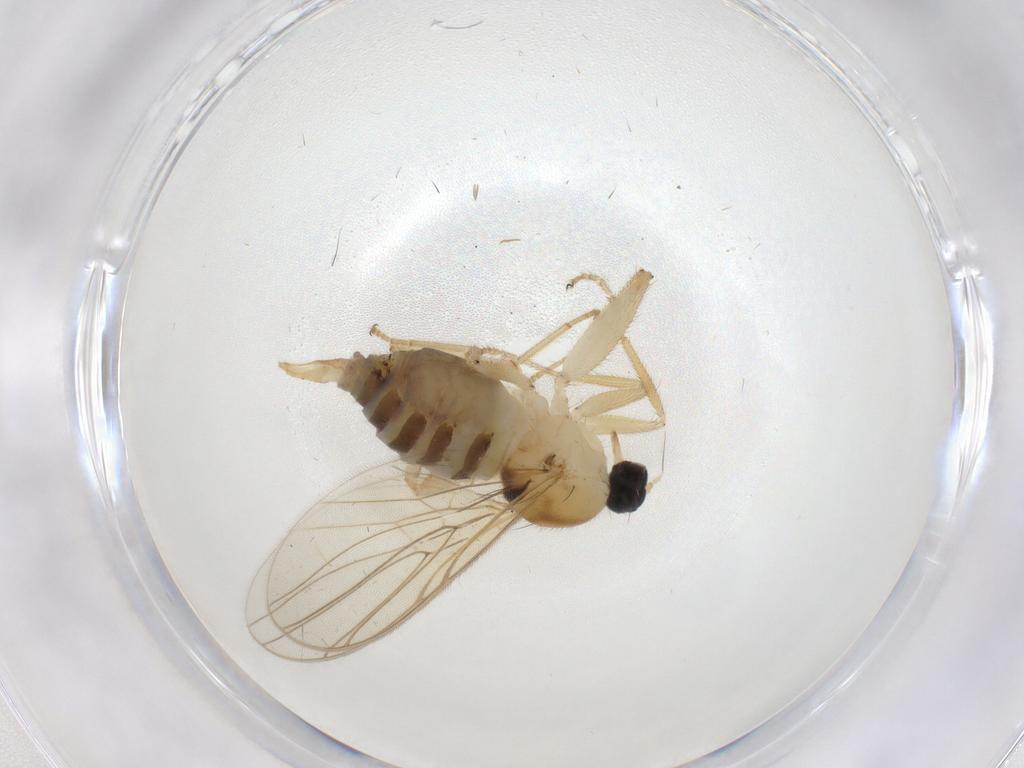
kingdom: Animalia
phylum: Arthropoda
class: Insecta
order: Diptera
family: Hybotidae
